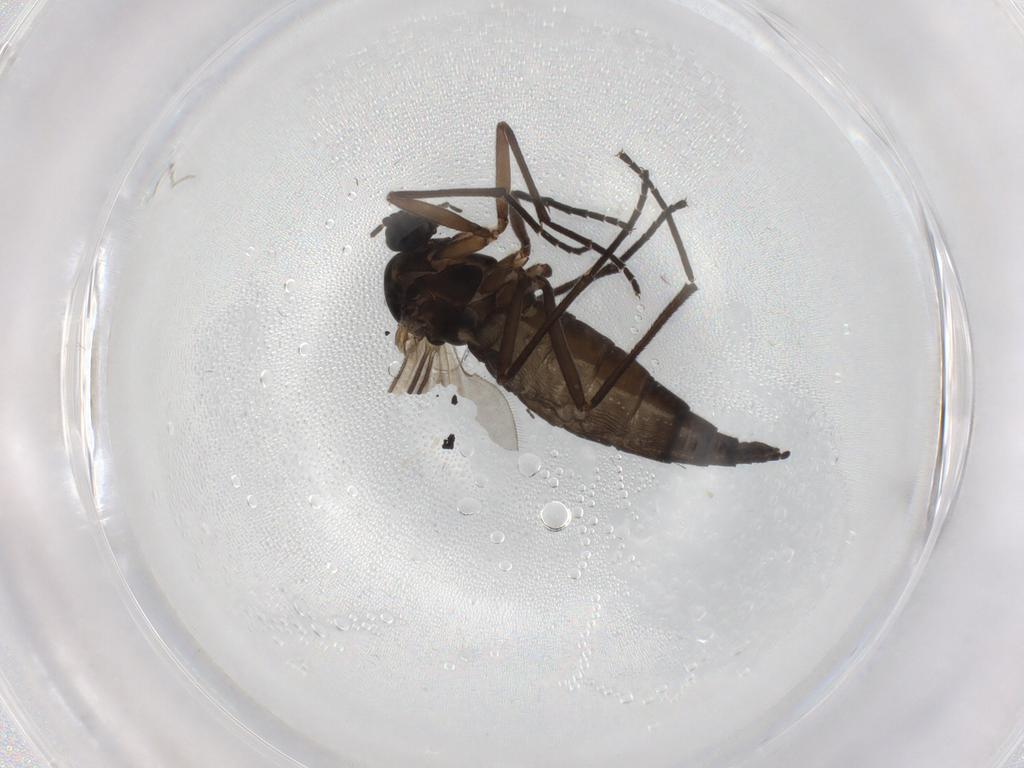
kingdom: Animalia
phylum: Arthropoda
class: Insecta
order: Diptera
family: Sciaridae
